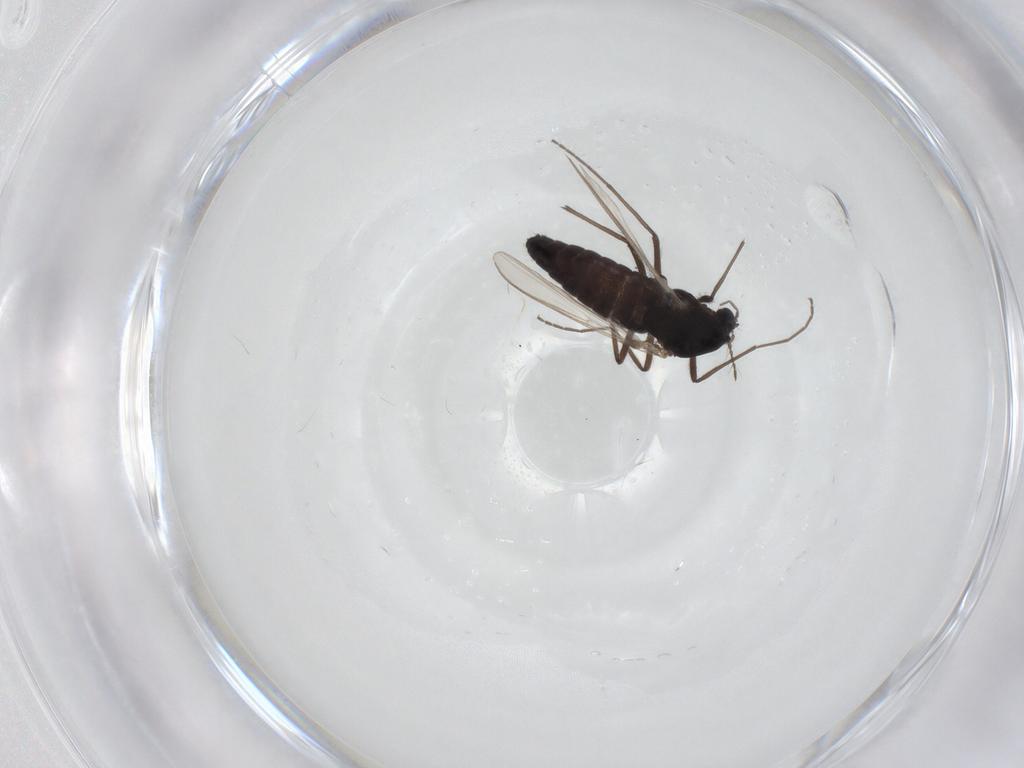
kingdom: Animalia
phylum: Arthropoda
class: Insecta
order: Diptera
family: Chironomidae
